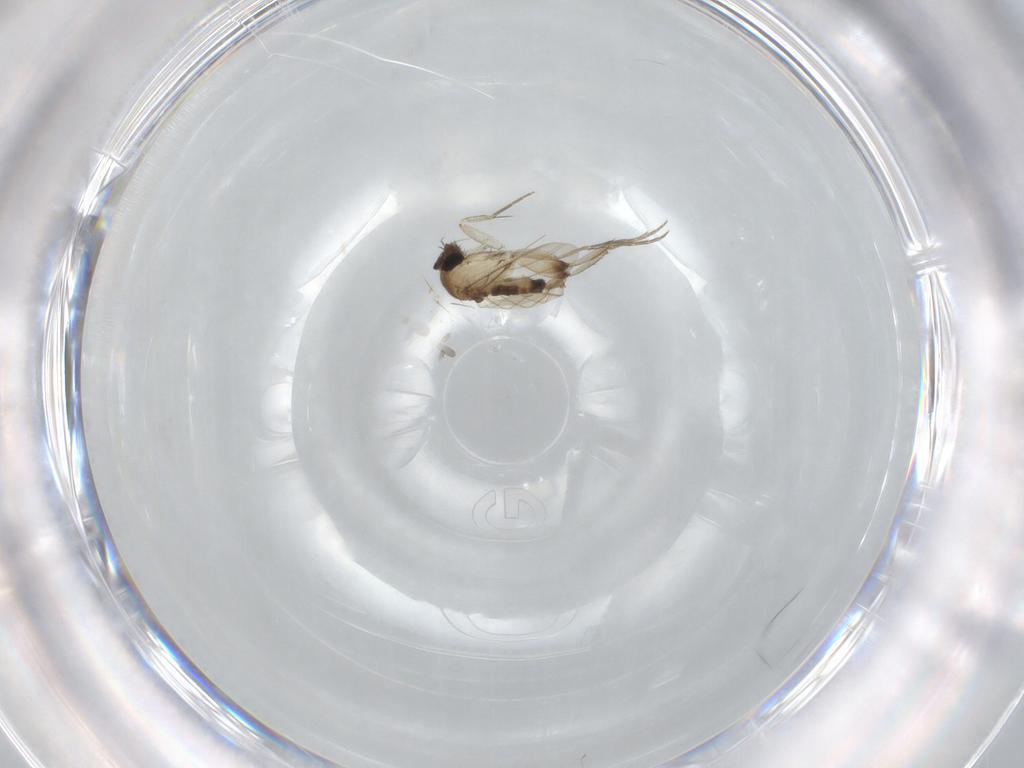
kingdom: Animalia
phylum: Arthropoda
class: Insecta
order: Diptera
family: Phoridae
